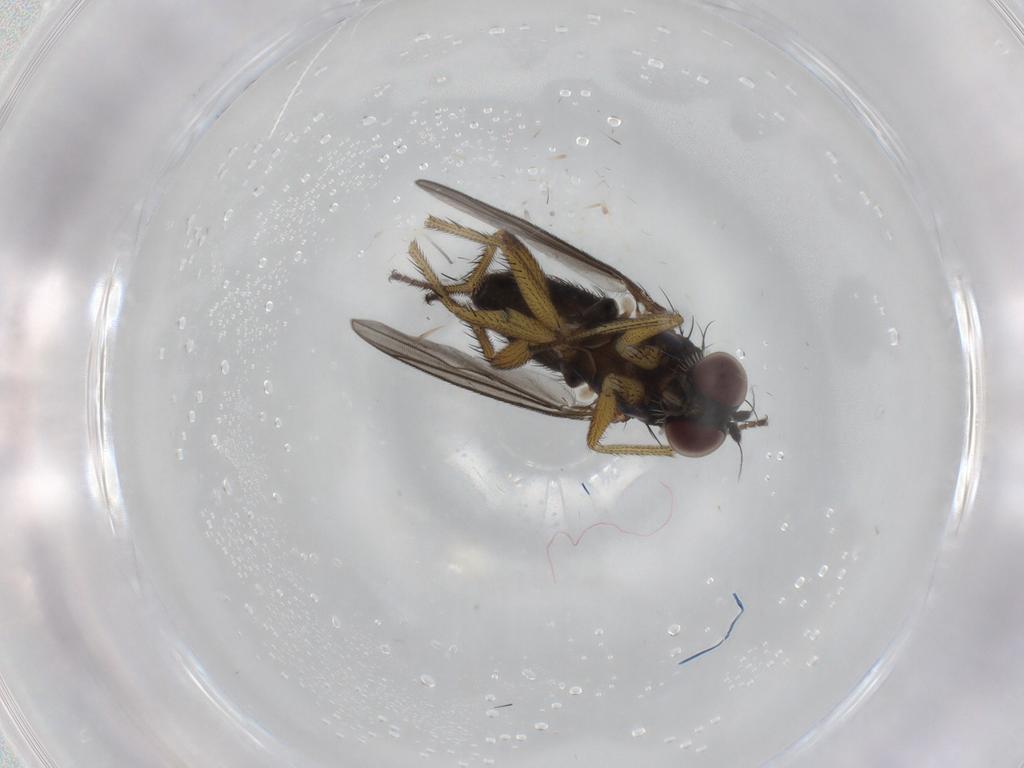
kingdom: Animalia
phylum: Arthropoda
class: Insecta
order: Diptera
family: Dolichopodidae
